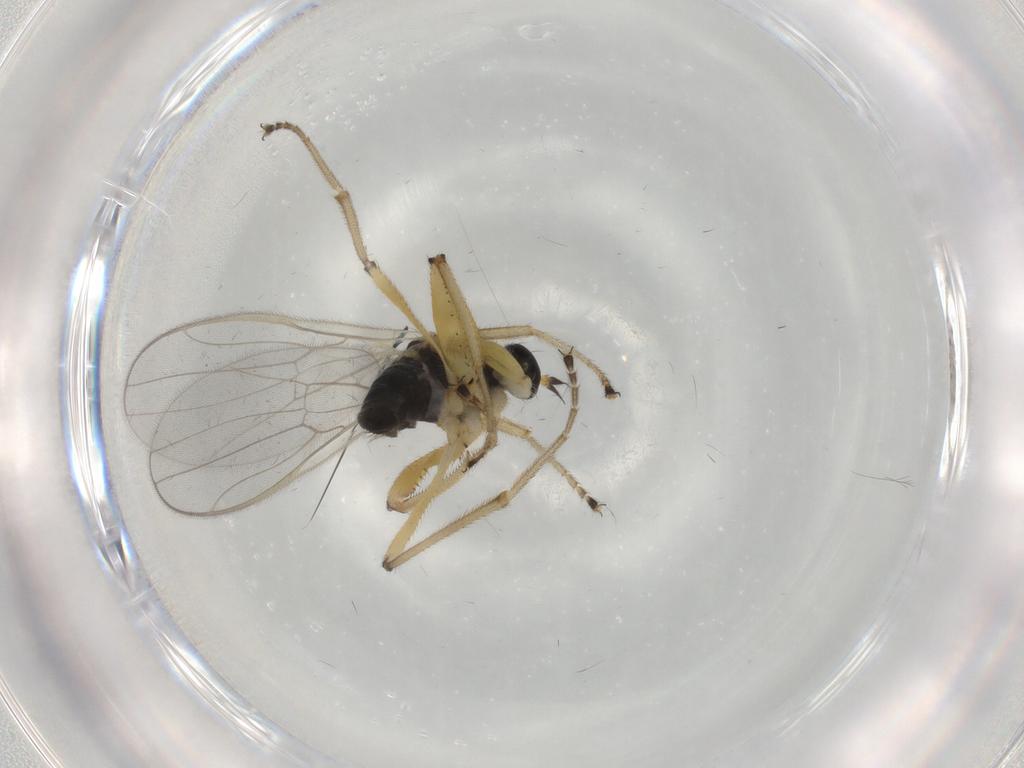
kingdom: Animalia
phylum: Arthropoda
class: Insecta
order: Diptera
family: Hybotidae
